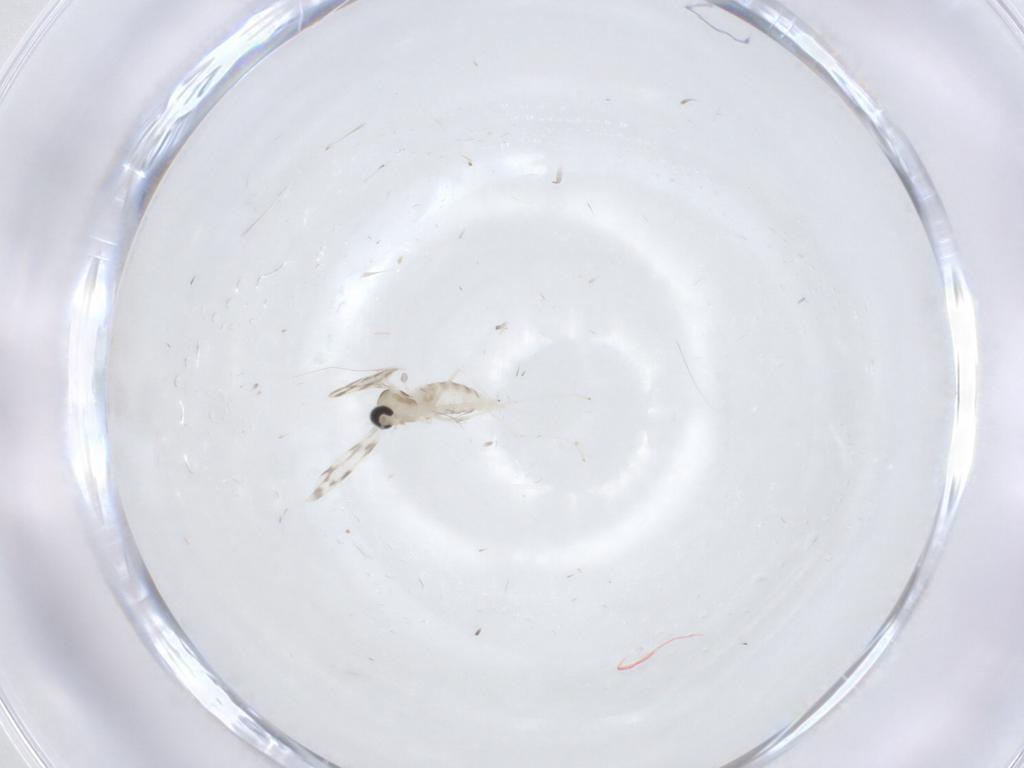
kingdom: Animalia
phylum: Arthropoda
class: Insecta
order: Diptera
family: Cecidomyiidae
